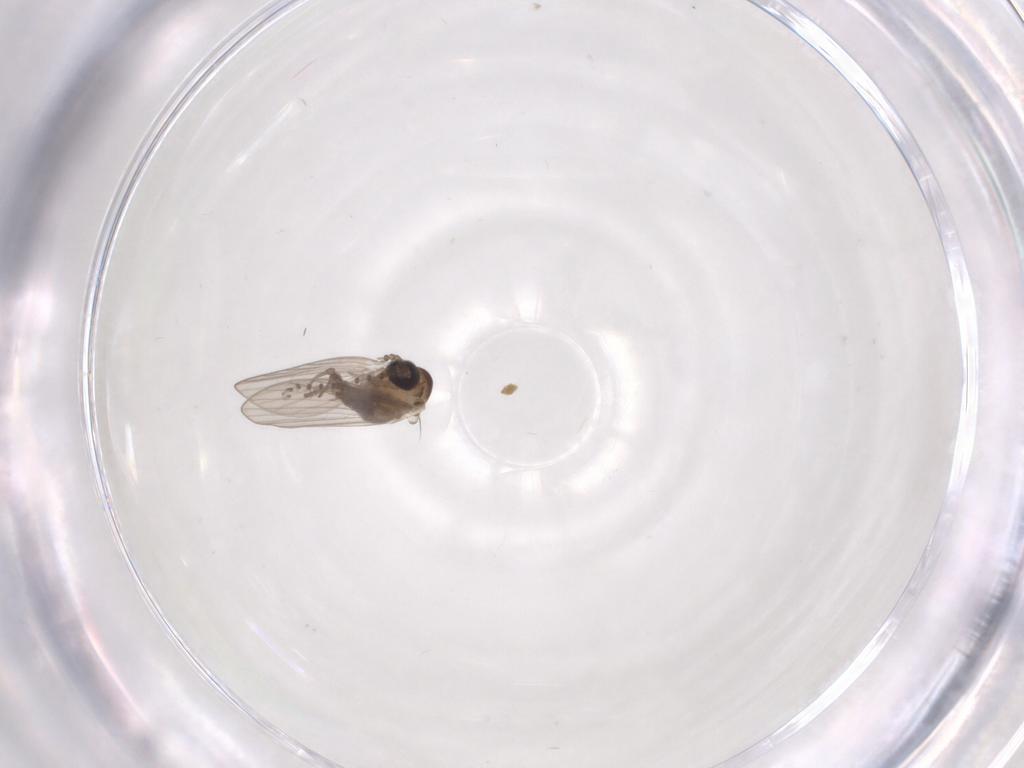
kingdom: Animalia
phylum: Arthropoda
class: Insecta
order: Diptera
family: Psychodidae
